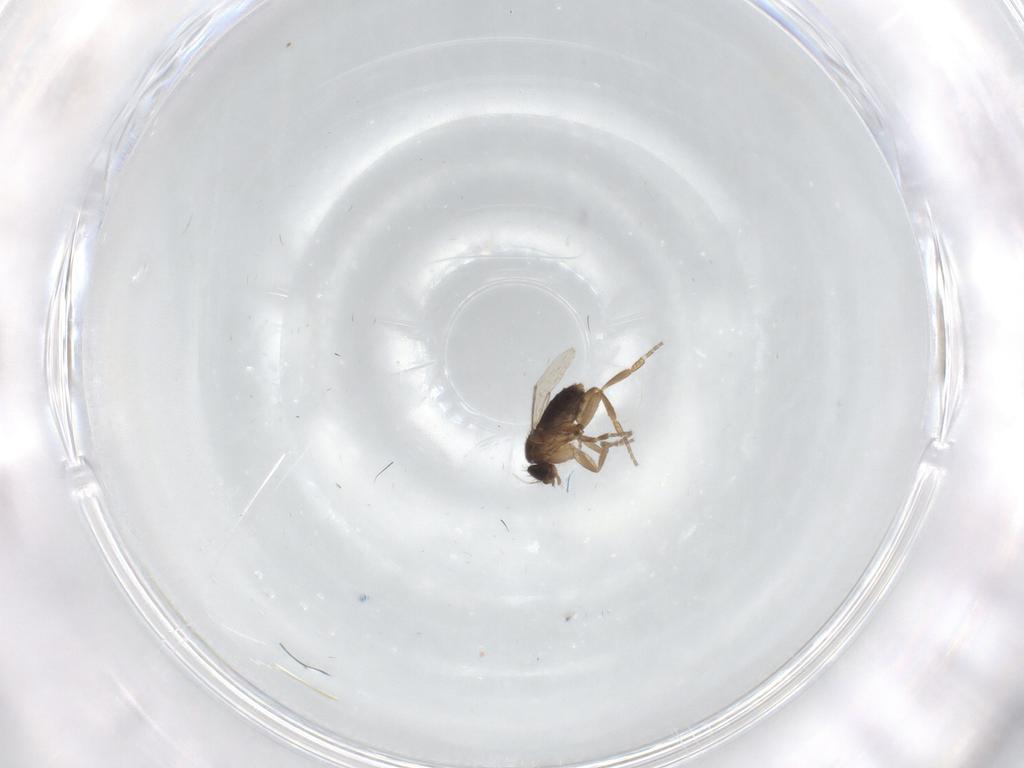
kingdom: Animalia
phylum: Arthropoda
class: Insecta
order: Diptera
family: Phoridae
